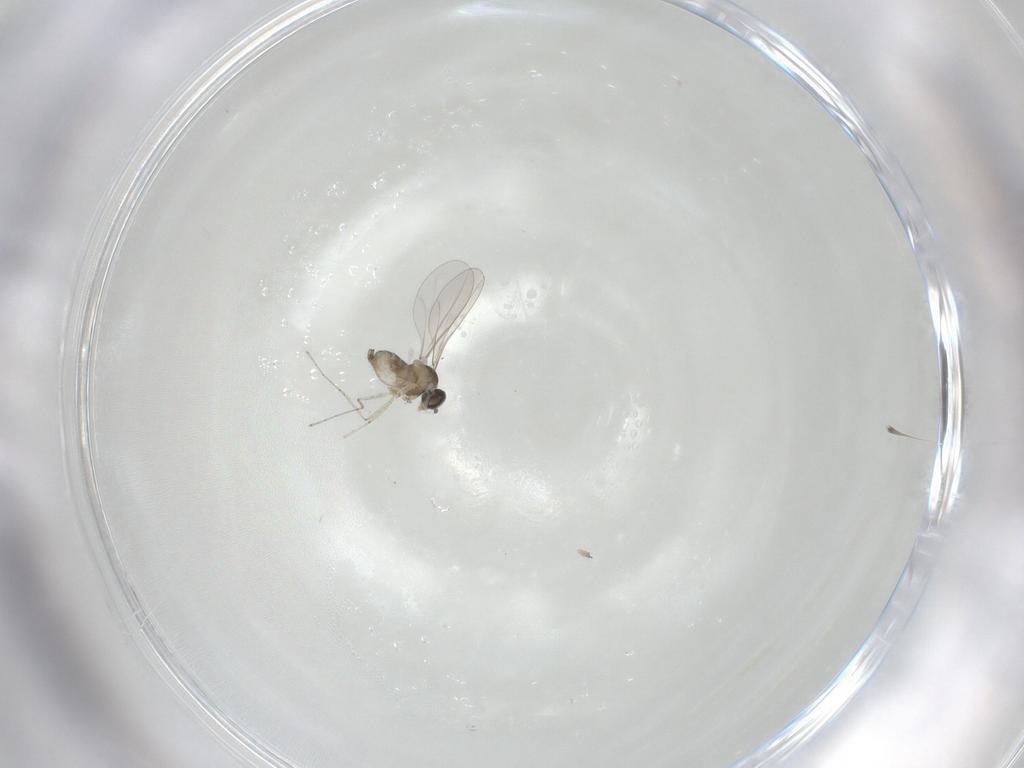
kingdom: Animalia
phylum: Arthropoda
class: Insecta
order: Diptera
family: Cecidomyiidae
